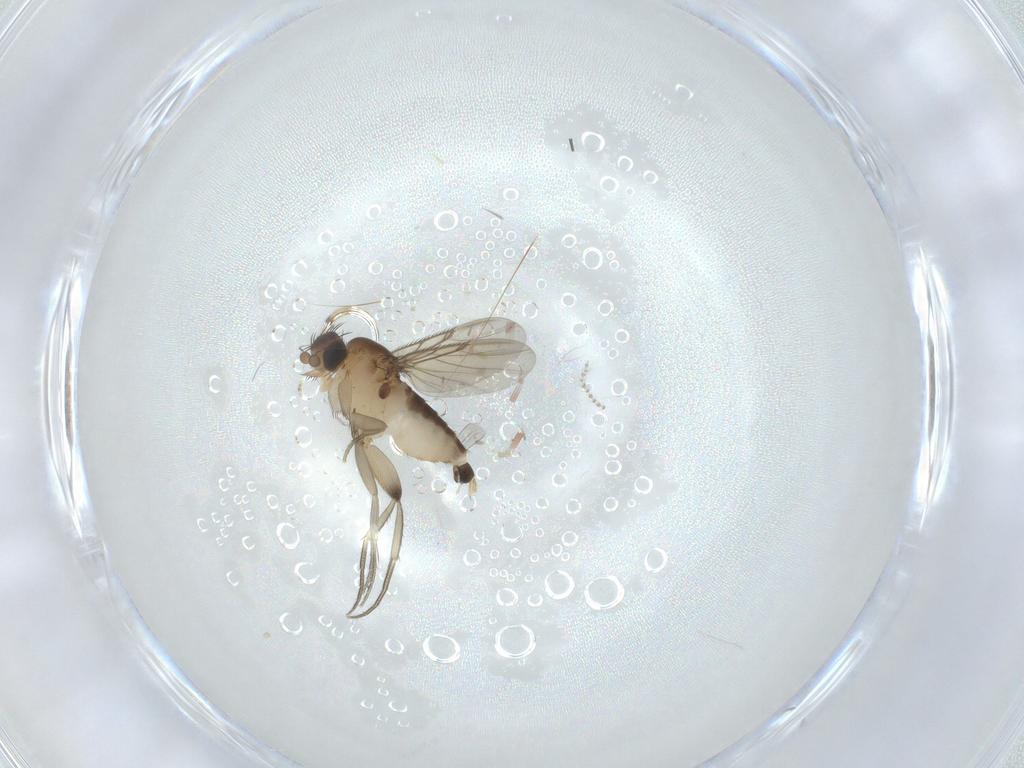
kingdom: Animalia
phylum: Arthropoda
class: Insecta
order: Diptera
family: Phoridae
